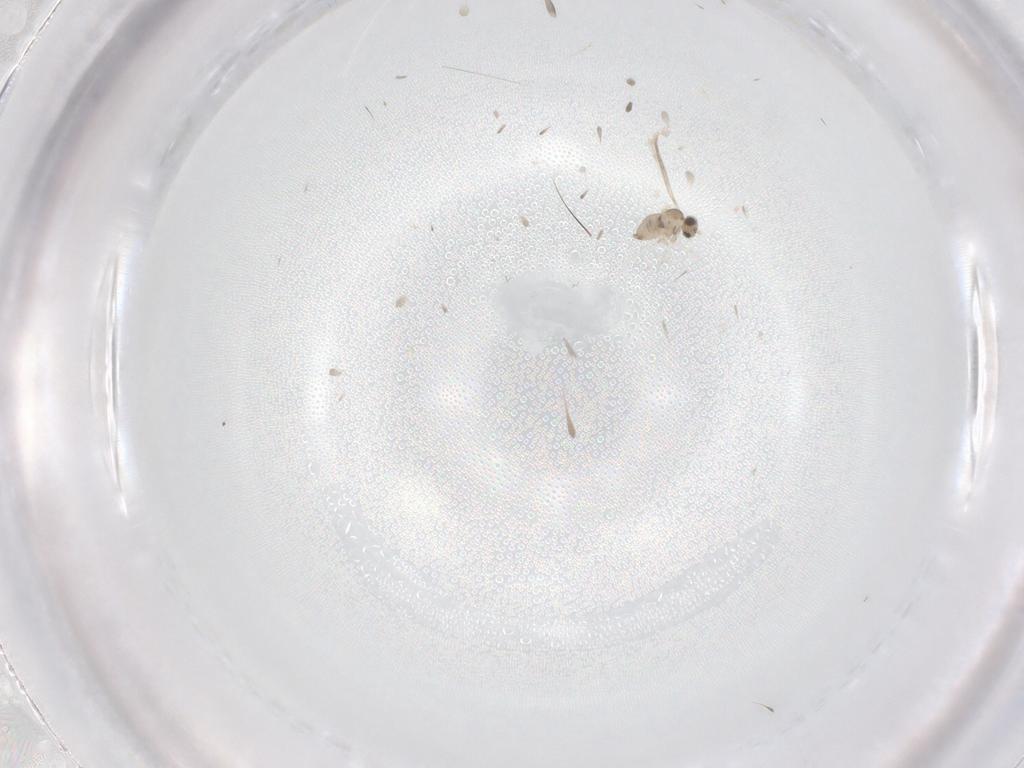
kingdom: Animalia
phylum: Arthropoda
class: Insecta
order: Diptera
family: Cecidomyiidae
